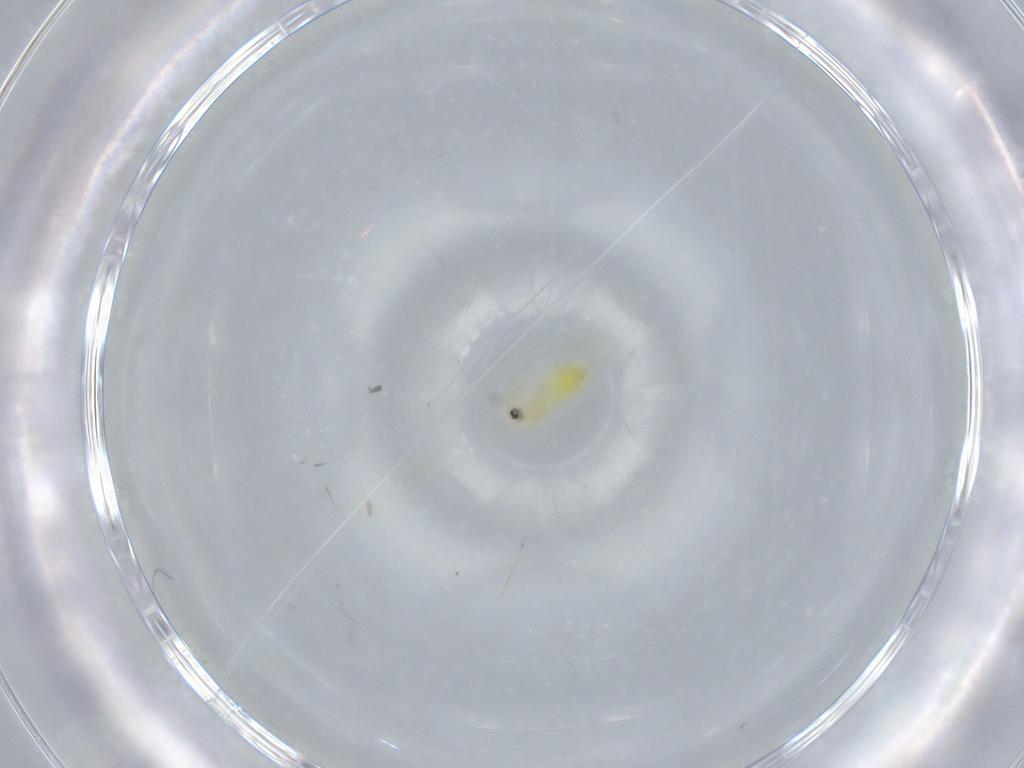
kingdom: Animalia
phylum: Arthropoda
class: Insecta
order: Hemiptera
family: Aleyrodidae
